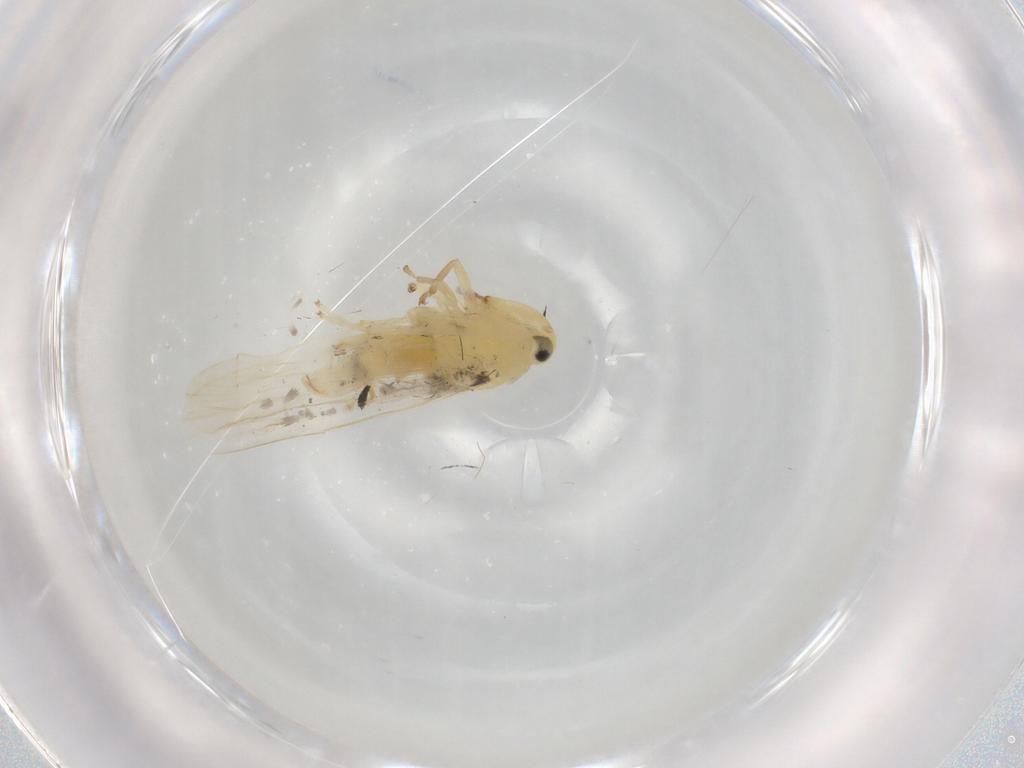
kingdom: Animalia
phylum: Arthropoda
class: Insecta
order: Hemiptera
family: Cicadellidae
